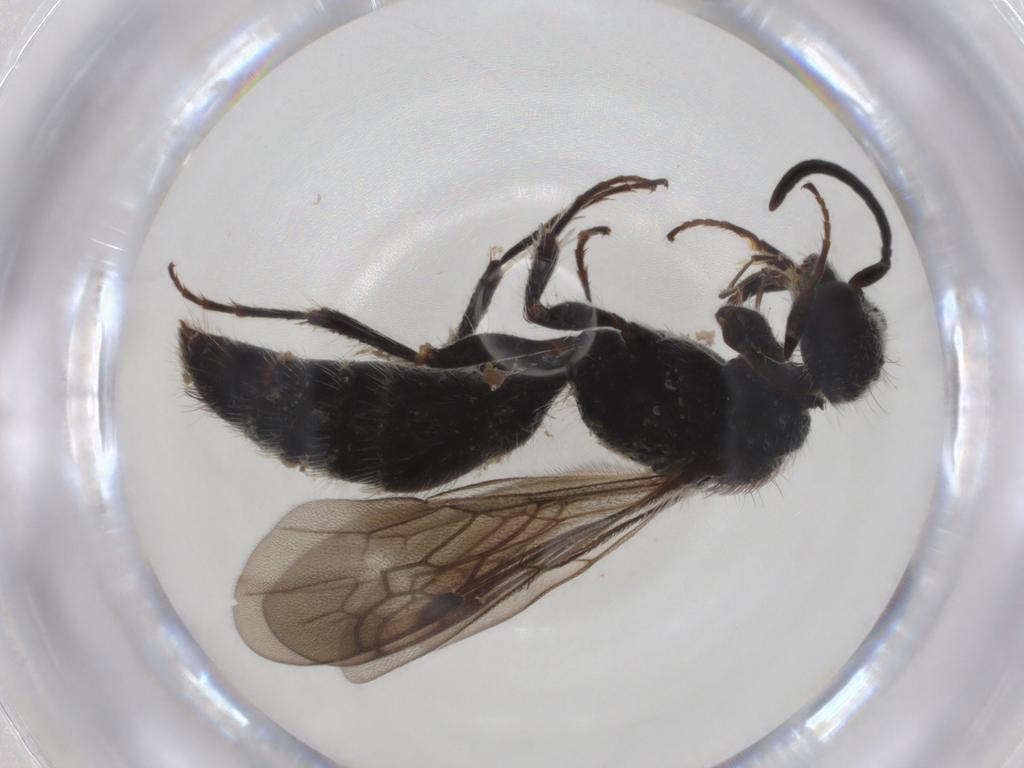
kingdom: Animalia
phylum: Arthropoda
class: Insecta
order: Hymenoptera
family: Mutillidae
